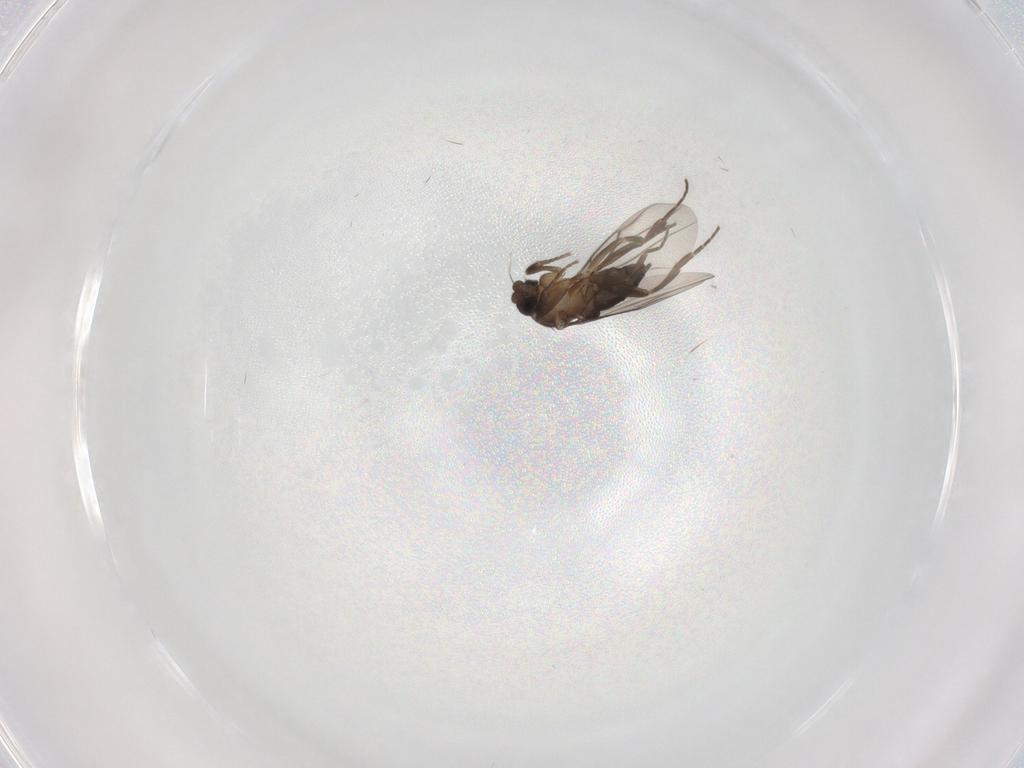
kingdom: Animalia
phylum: Arthropoda
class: Insecta
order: Diptera
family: Phoridae
